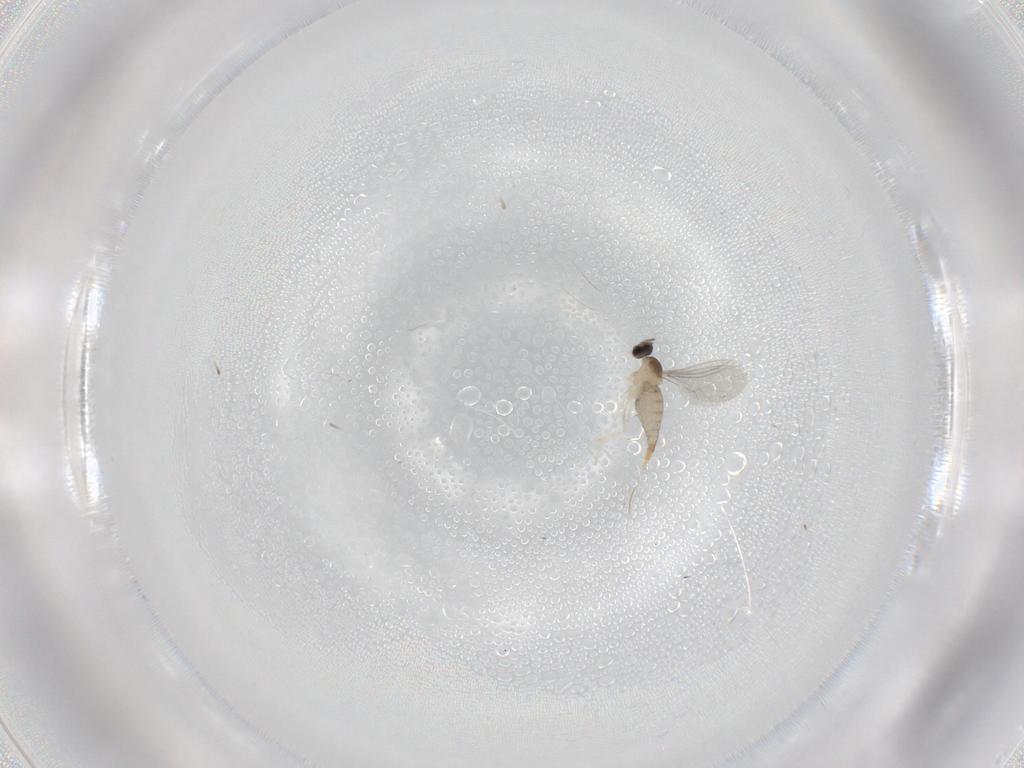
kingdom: Animalia
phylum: Arthropoda
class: Insecta
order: Diptera
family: Cecidomyiidae
